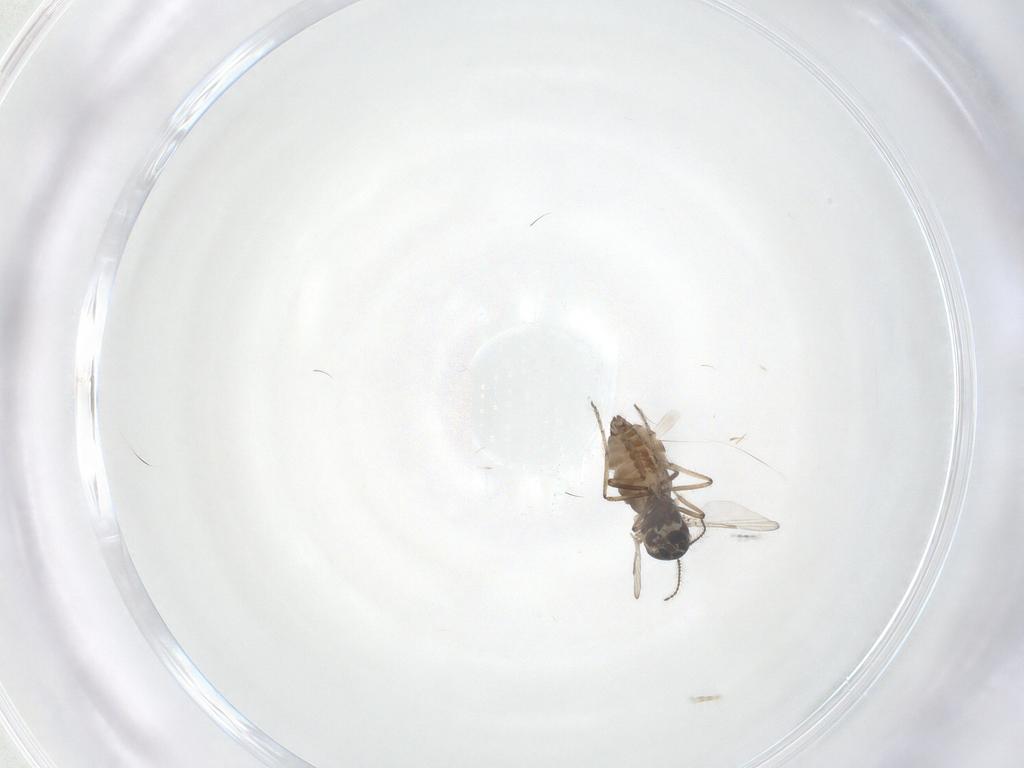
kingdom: Animalia
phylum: Arthropoda
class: Insecta
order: Diptera
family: Ceratopogonidae
